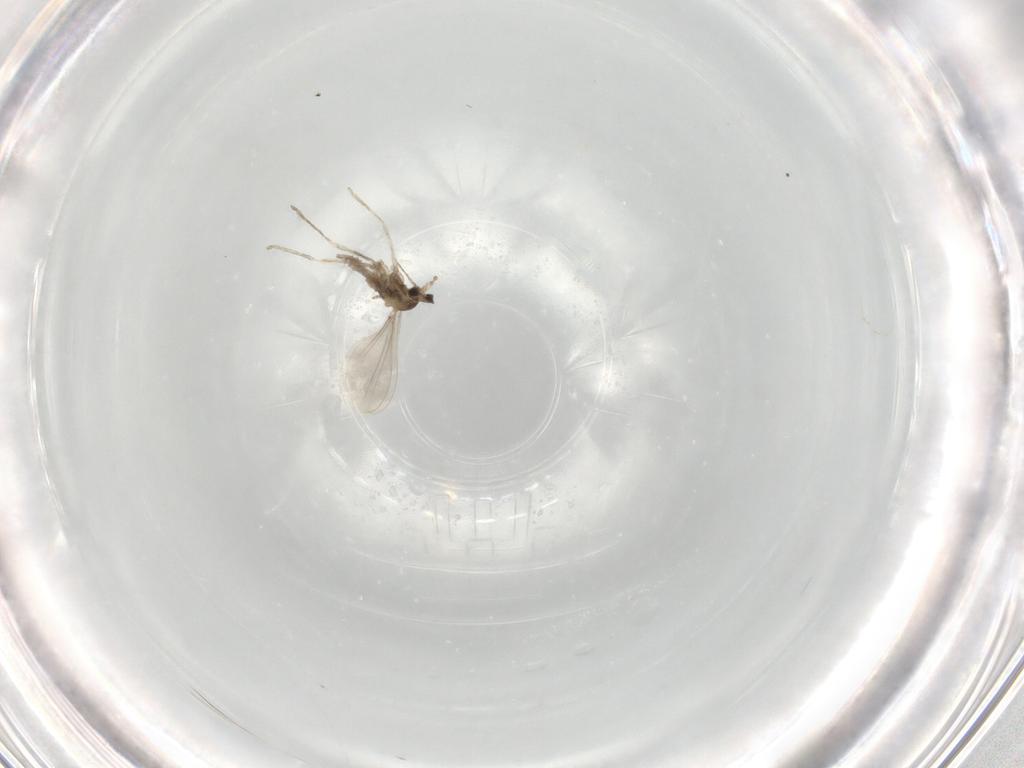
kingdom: Animalia
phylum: Arthropoda
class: Insecta
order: Diptera
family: Cecidomyiidae
